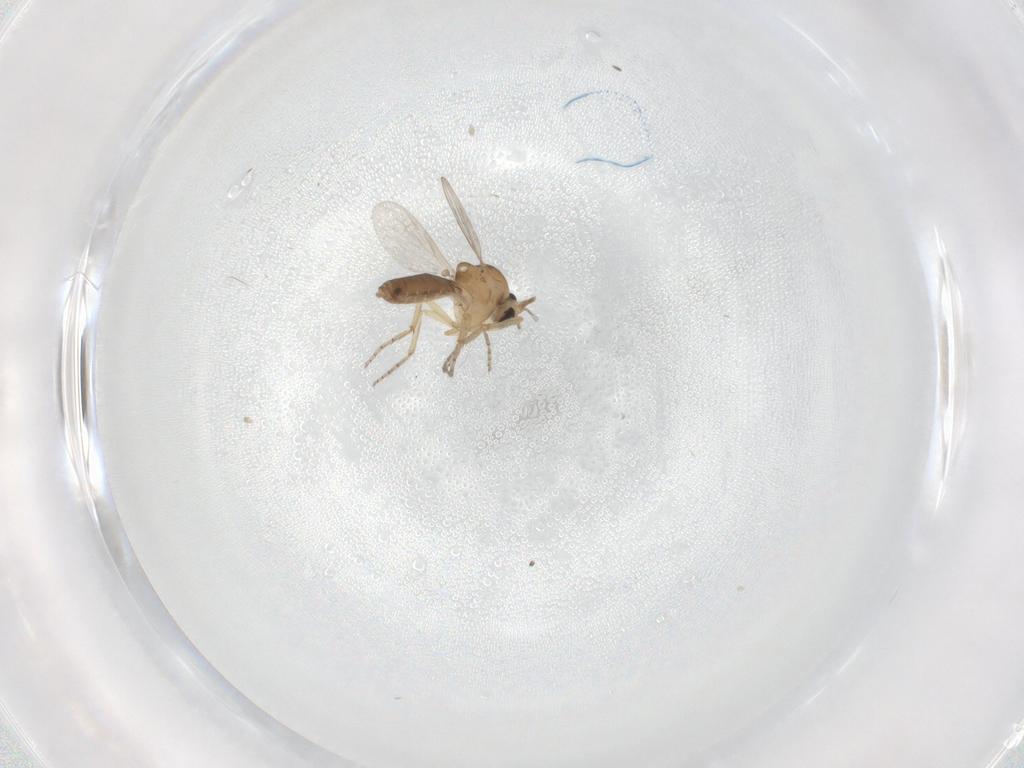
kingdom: Animalia
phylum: Arthropoda
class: Insecta
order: Diptera
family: Ceratopogonidae
